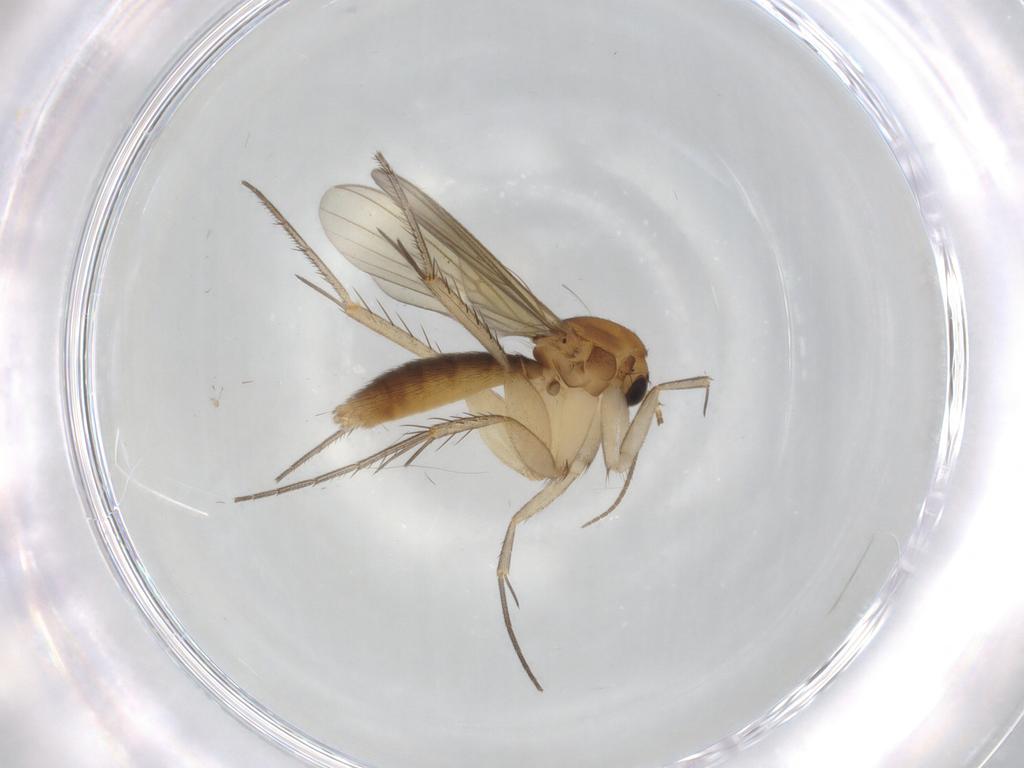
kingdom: Animalia
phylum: Arthropoda
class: Insecta
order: Diptera
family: Mycetophilidae
